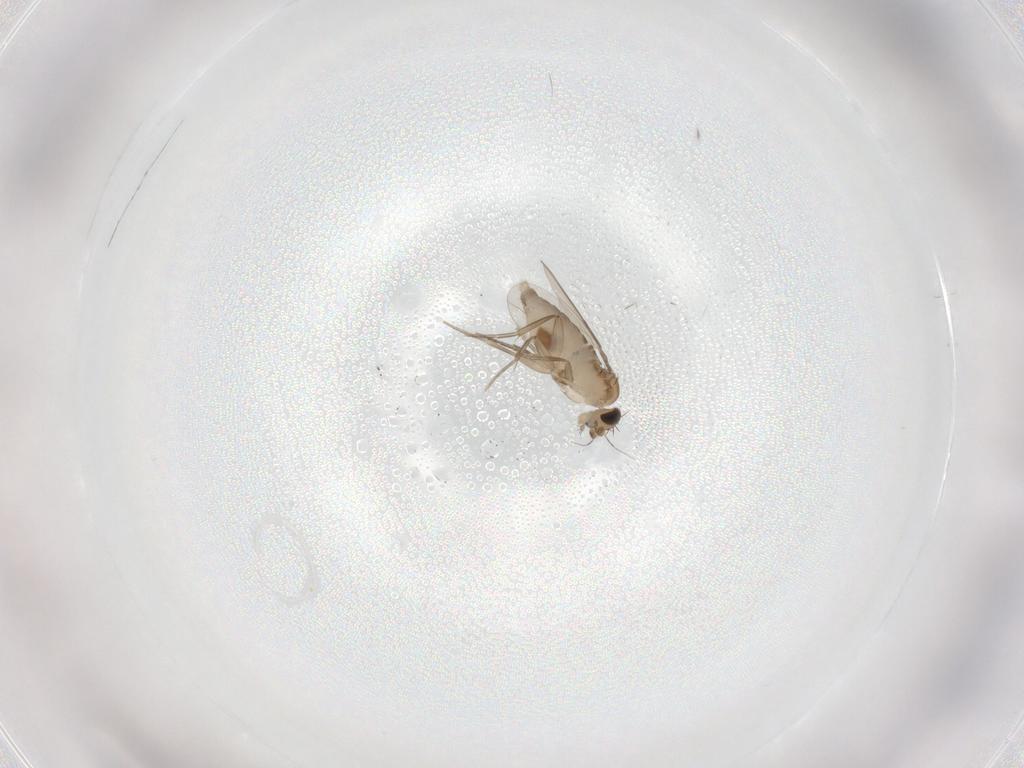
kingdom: Animalia
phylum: Arthropoda
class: Insecta
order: Diptera
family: Phoridae
